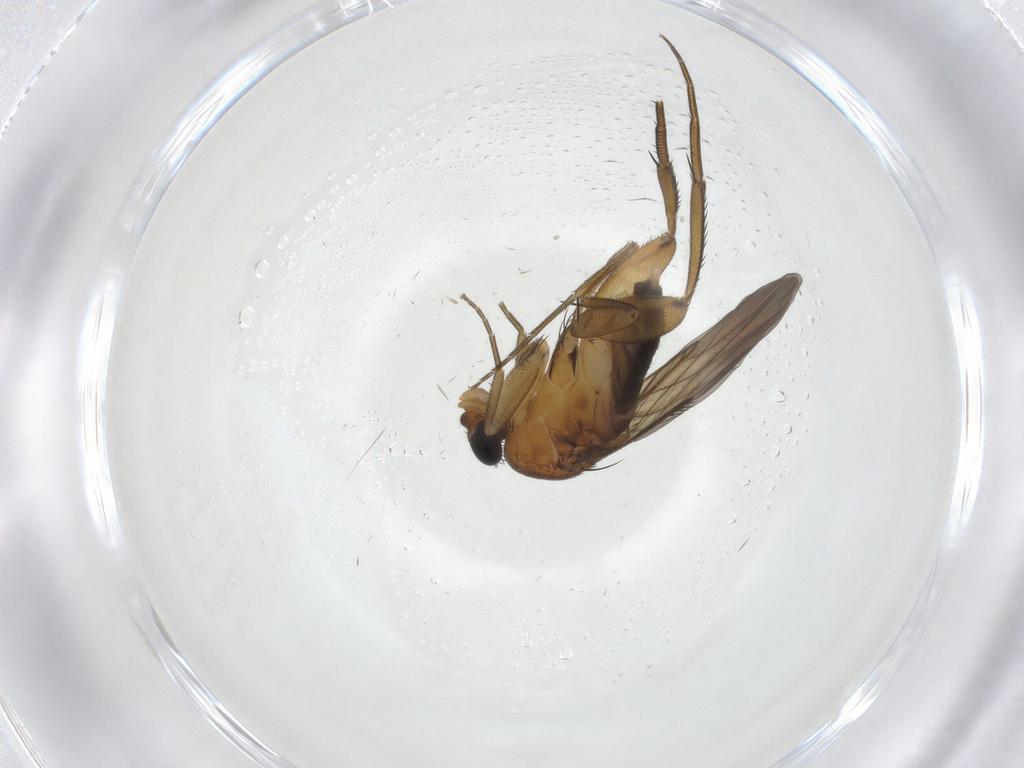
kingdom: Animalia
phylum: Arthropoda
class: Insecta
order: Diptera
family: Phoridae
